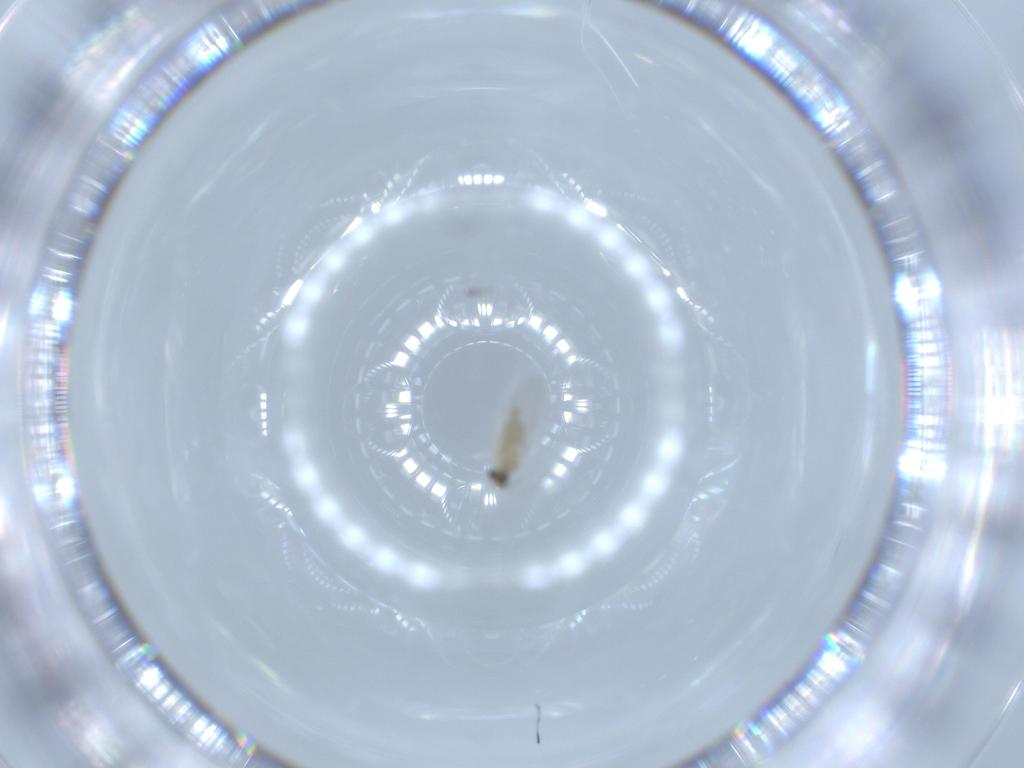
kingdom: Animalia
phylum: Arthropoda
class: Insecta
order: Diptera
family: Cecidomyiidae
